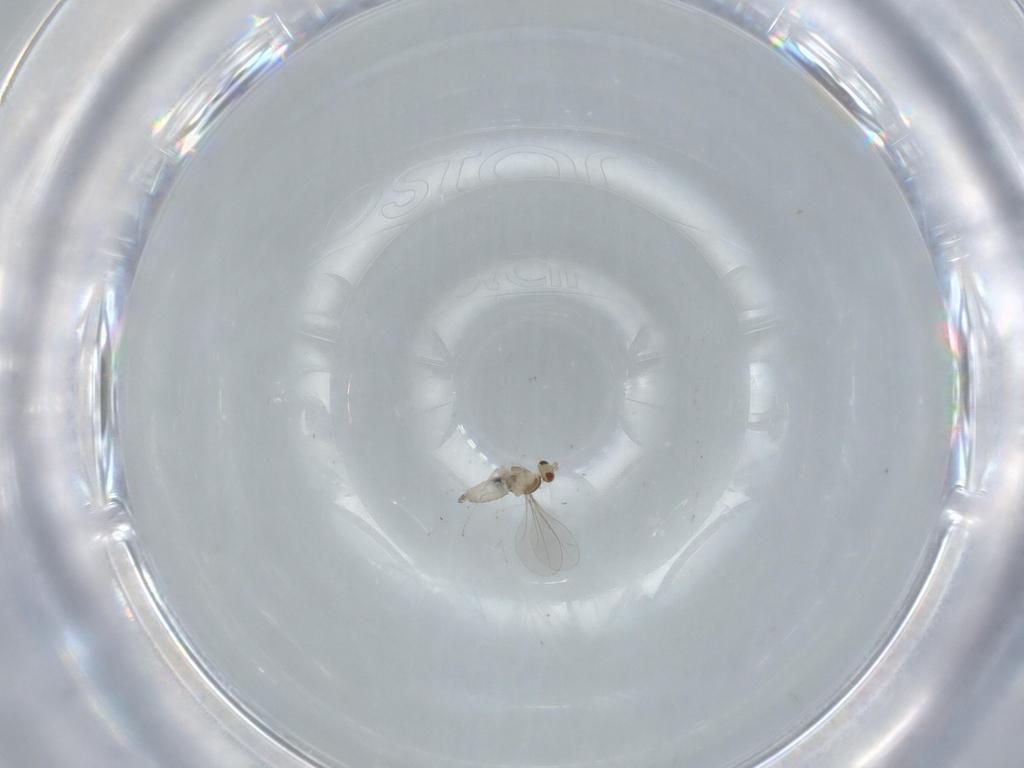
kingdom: Animalia
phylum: Arthropoda
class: Insecta
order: Diptera
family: Cecidomyiidae
